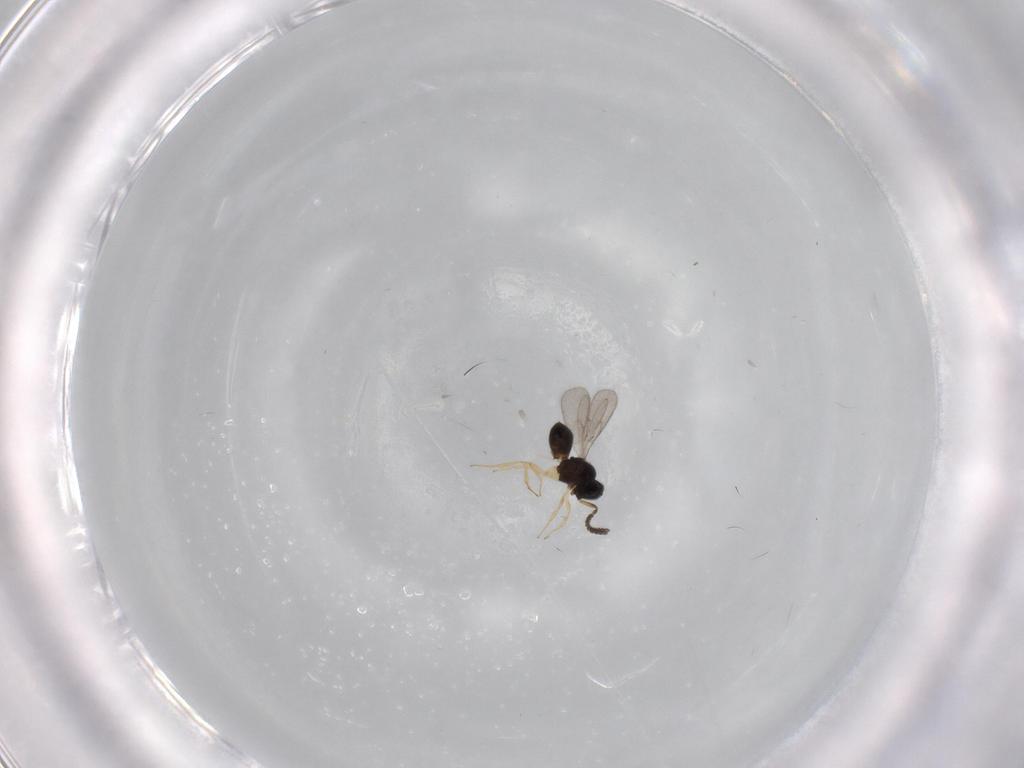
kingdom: Animalia
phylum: Arthropoda
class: Insecta
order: Hymenoptera
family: Scelionidae
